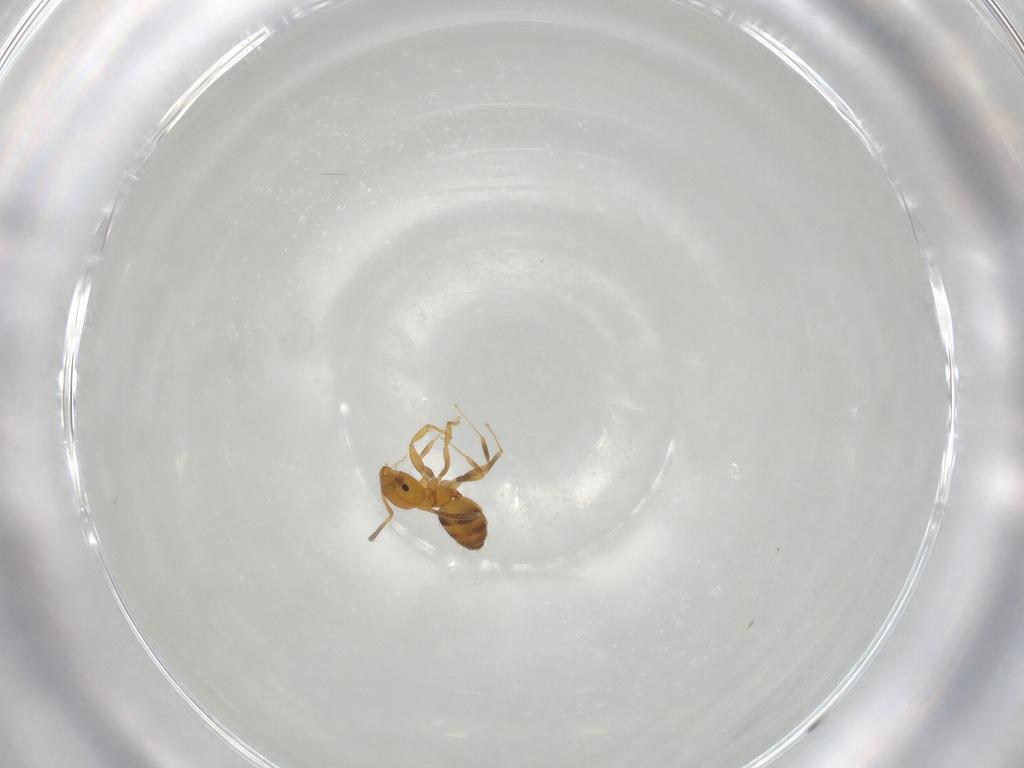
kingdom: Animalia
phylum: Arthropoda
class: Insecta
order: Hymenoptera
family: Formicidae
